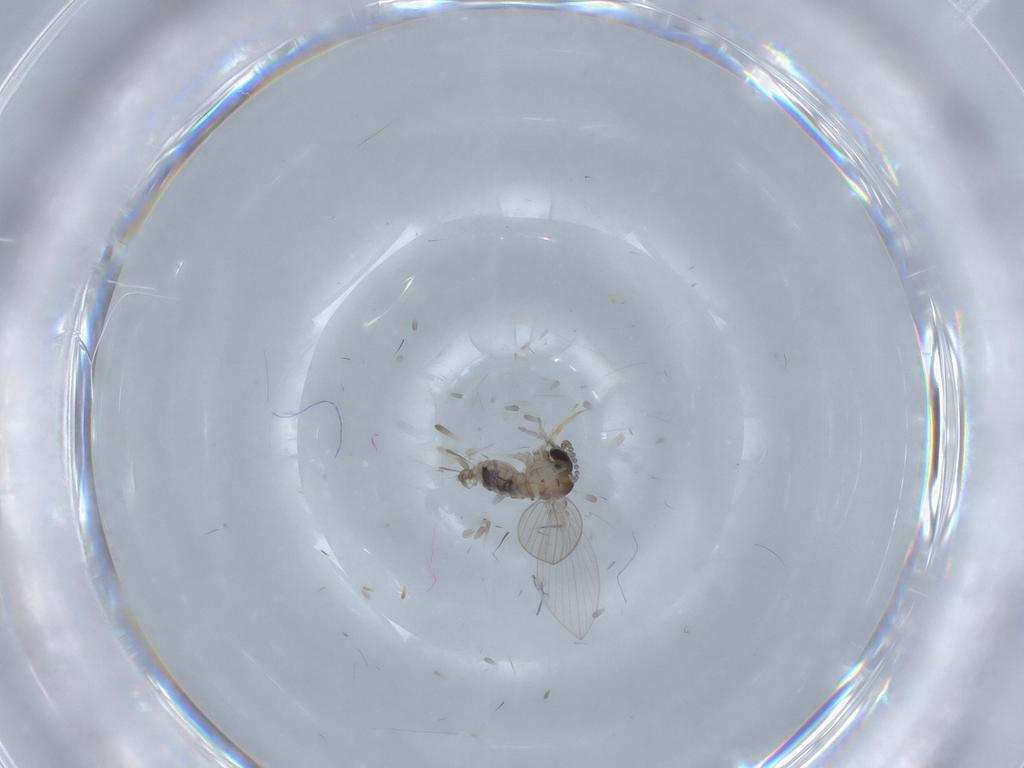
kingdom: Animalia
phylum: Arthropoda
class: Insecta
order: Diptera
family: Psychodidae
